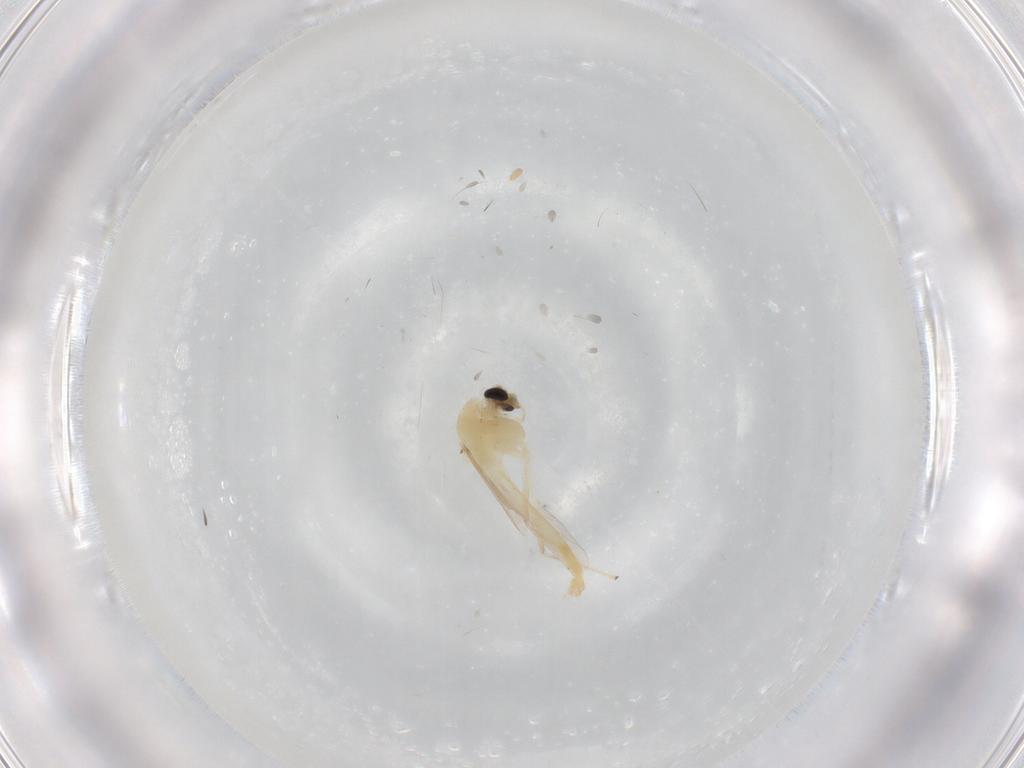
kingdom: Animalia
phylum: Arthropoda
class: Insecta
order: Diptera
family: Chironomidae
